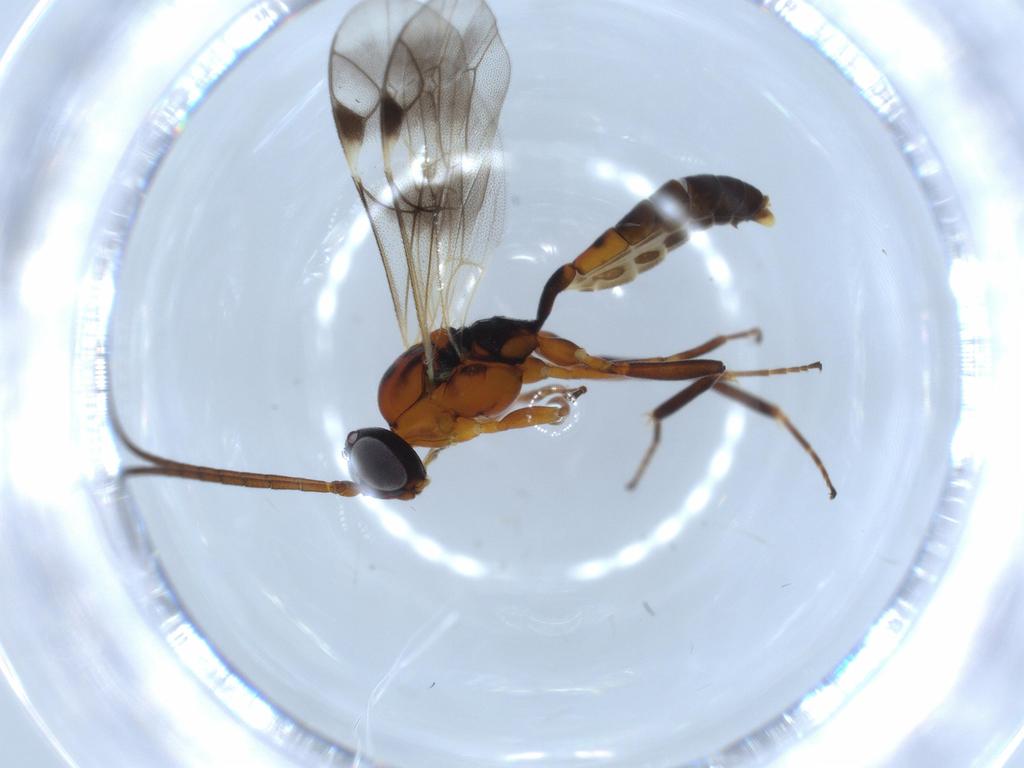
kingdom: Animalia
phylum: Arthropoda
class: Insecta
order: Hymenoptera
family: Ichneumonidae
